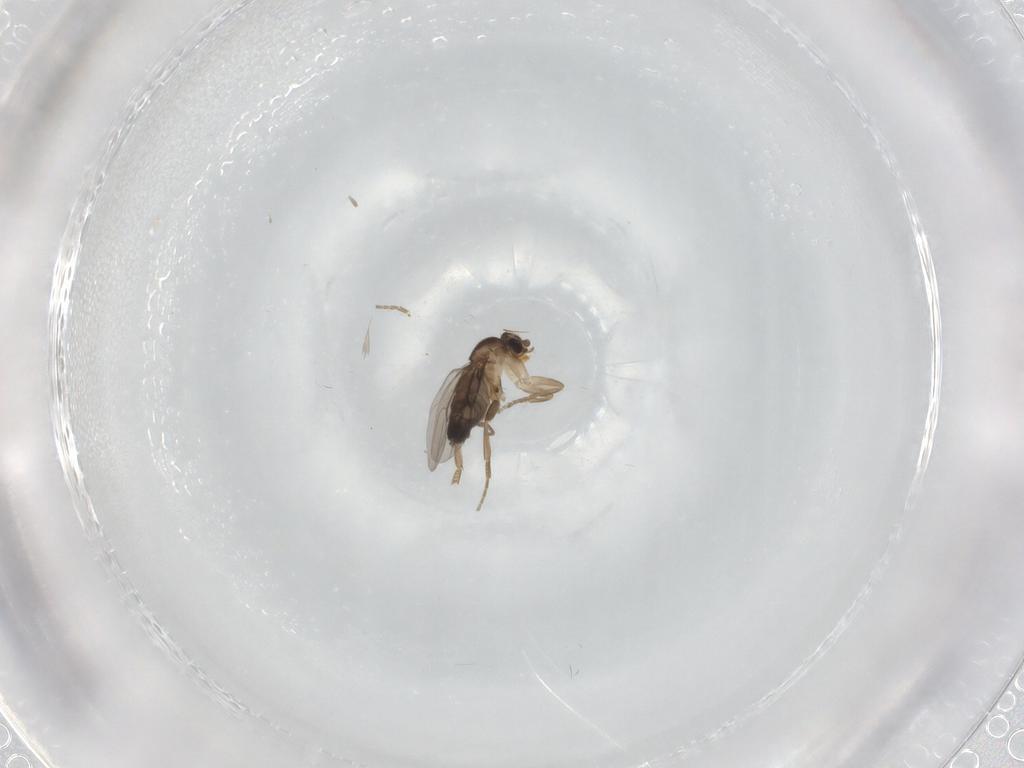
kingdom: Animalia
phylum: Arthropoda
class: Insecta
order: Diptera
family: Phoridae
